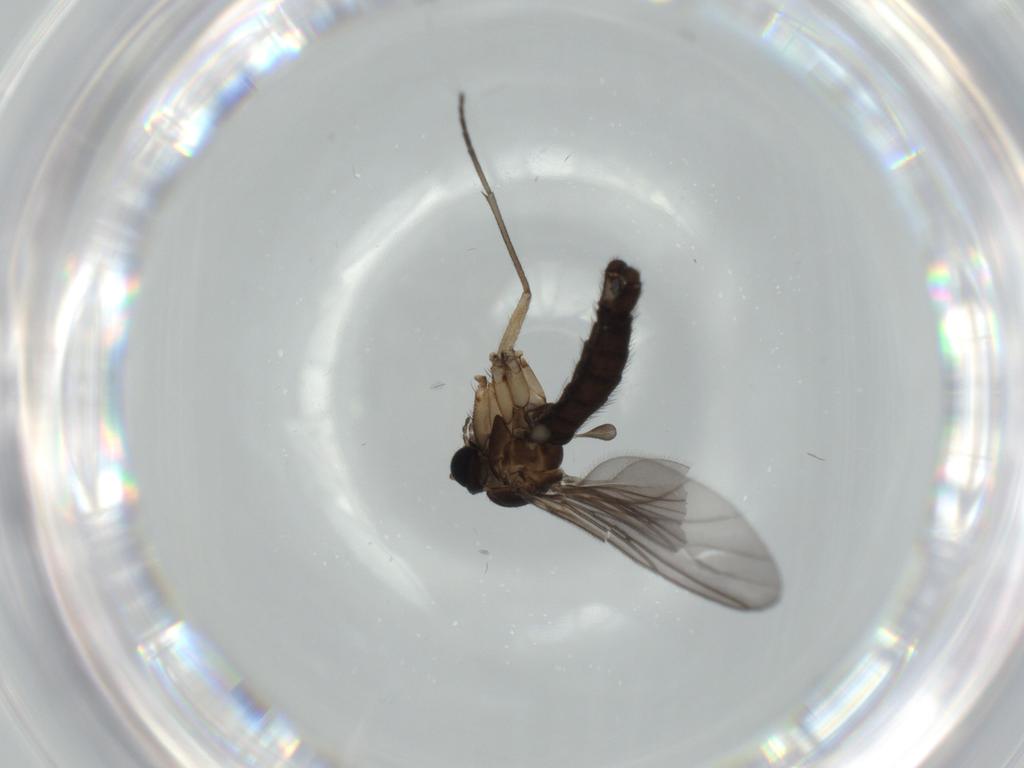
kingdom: Animalia
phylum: Arthropoda
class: Insecta
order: Diptera
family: Sciaridae
